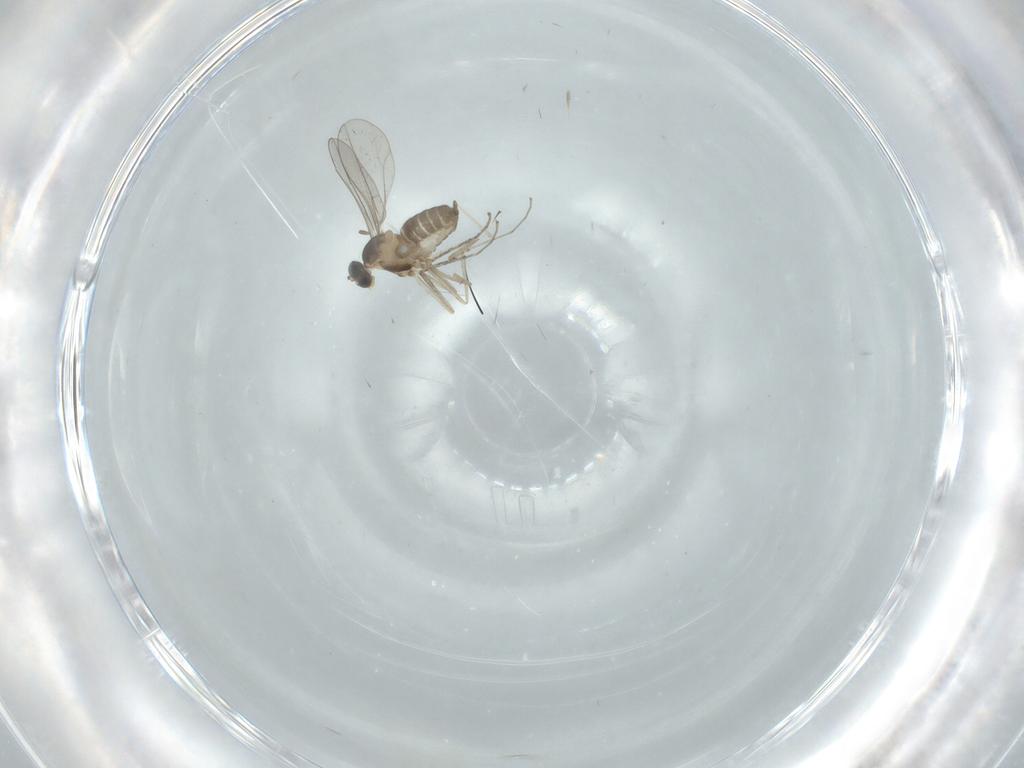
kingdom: Animalia
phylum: Arthropoda
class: Insecta
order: Diptera
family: Cecidomyiidae
